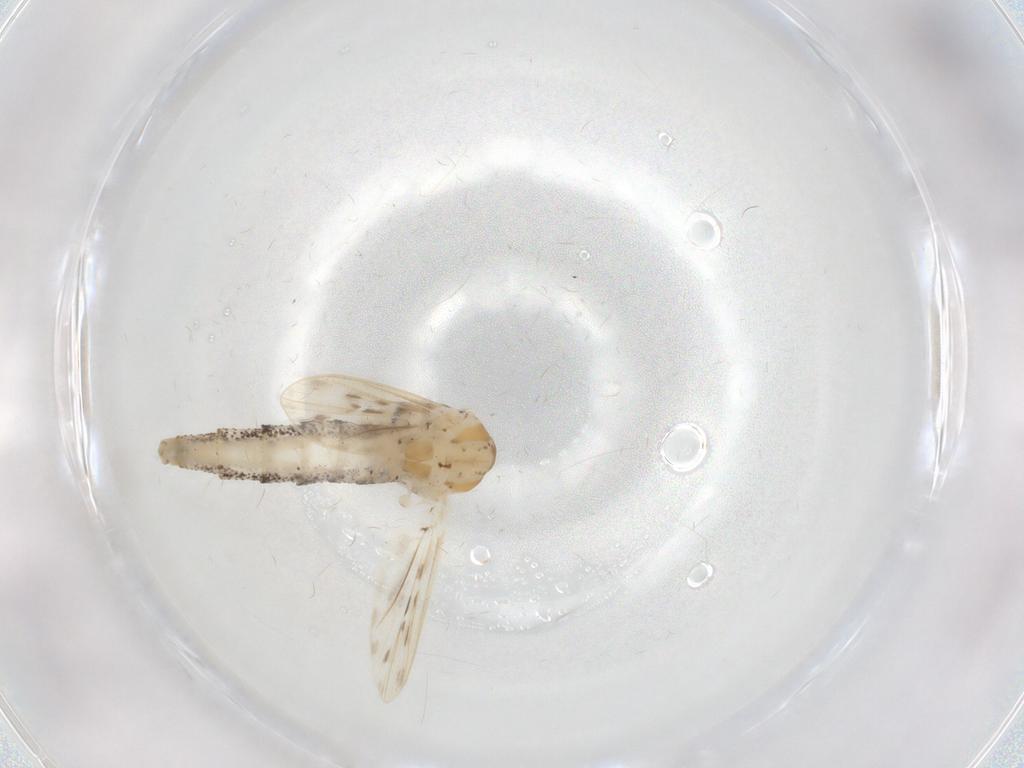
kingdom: Animalia
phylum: Arthropoda
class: Insecta
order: Diptera
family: Chaoboridae
